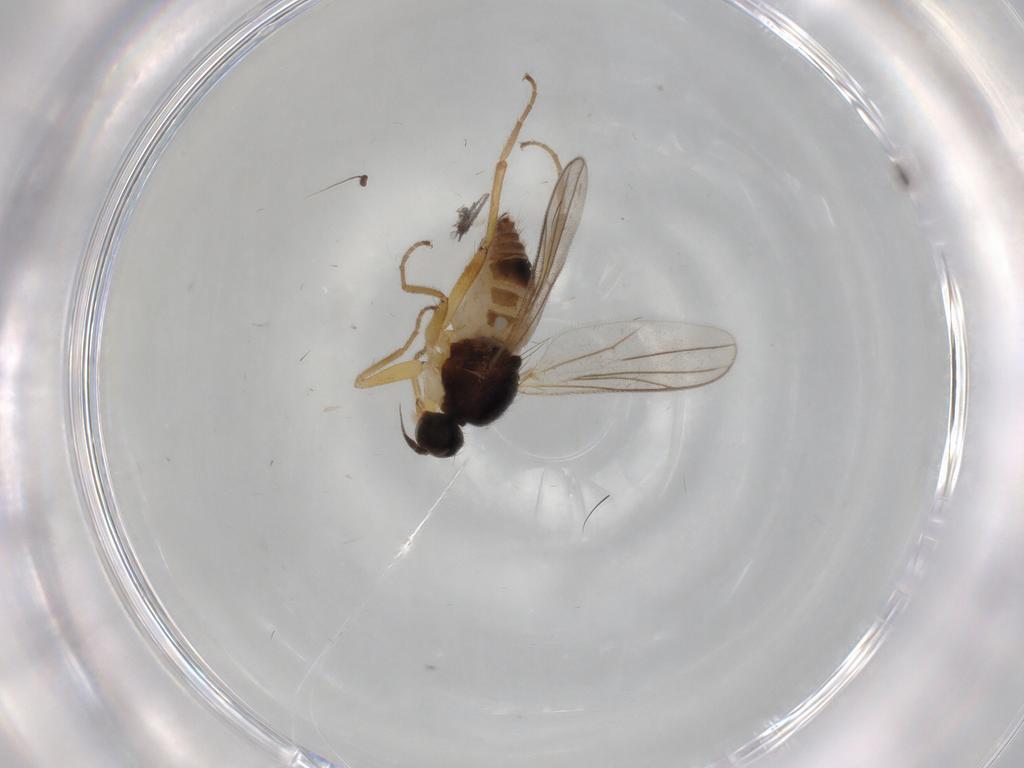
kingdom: Animalia
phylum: Arthropoda
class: Insecta
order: Diptera
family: Hybotidae
